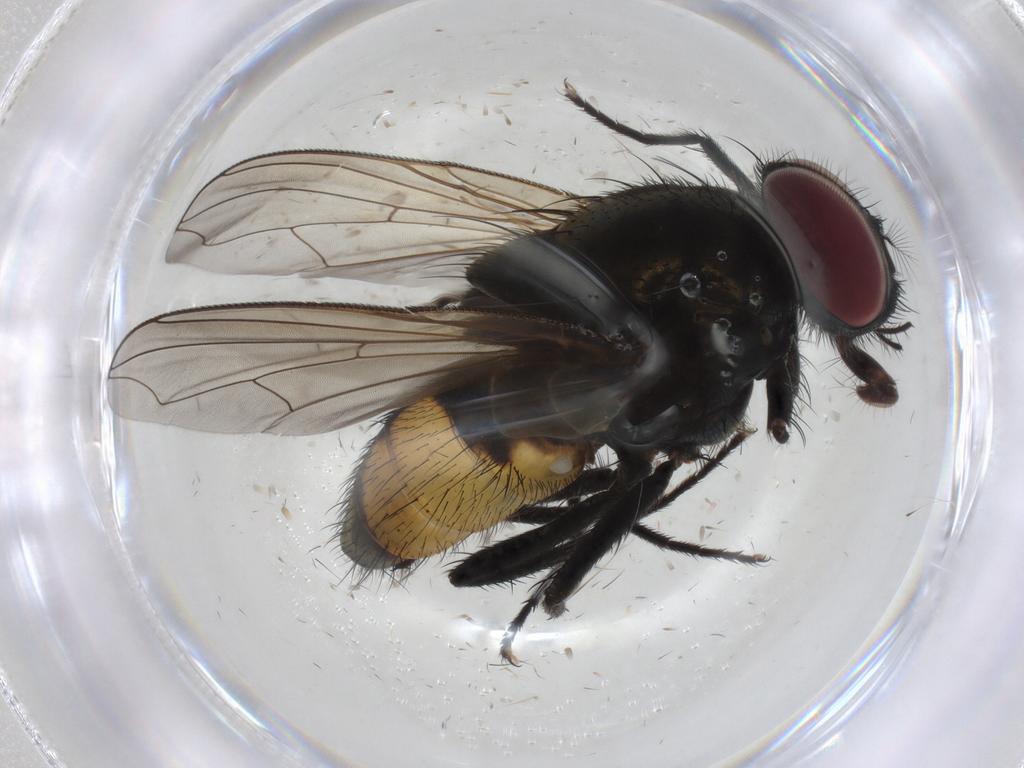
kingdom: Animalia
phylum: Arthropoda
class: Insecta
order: Diptera
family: Muscidae
